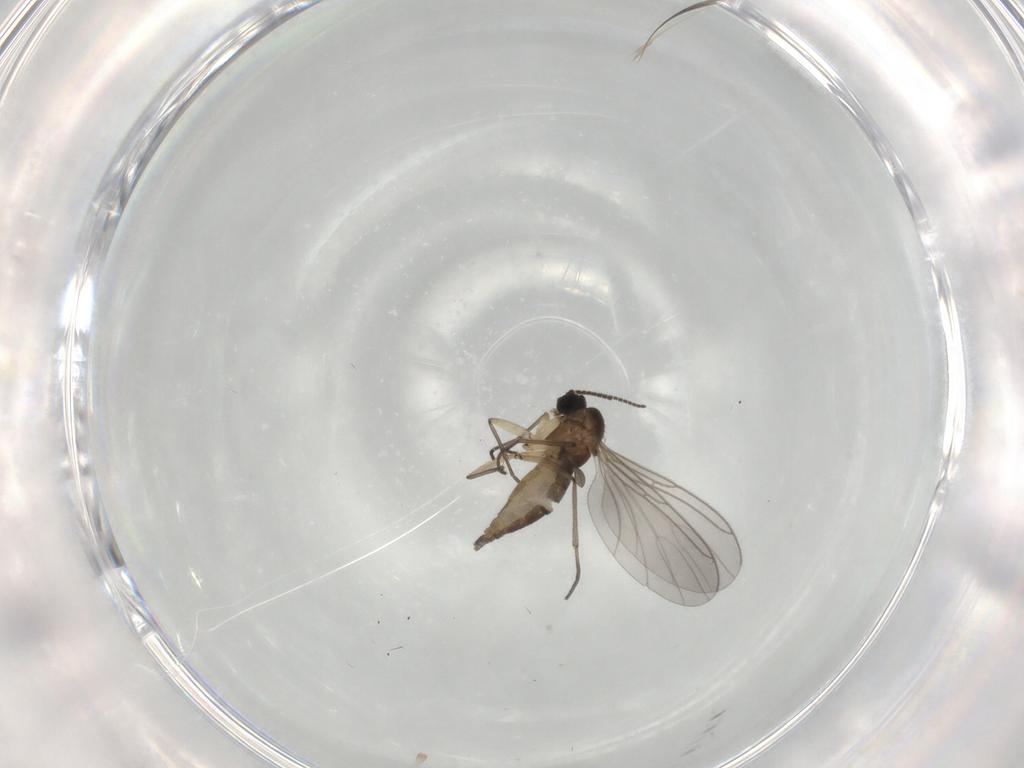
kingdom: Animalia
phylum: Arthropoda
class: Insecta
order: Diptera
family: Sciaridae
